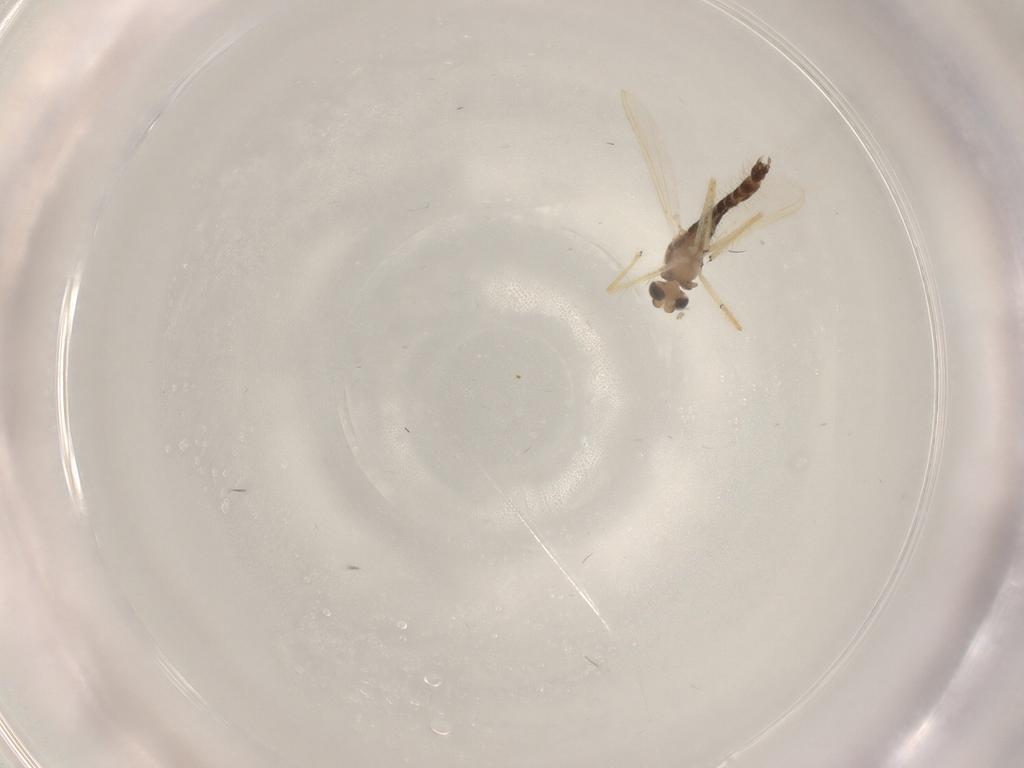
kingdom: Animalia
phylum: Arthropoda
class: Insecta
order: Diptera
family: Chironomidae
